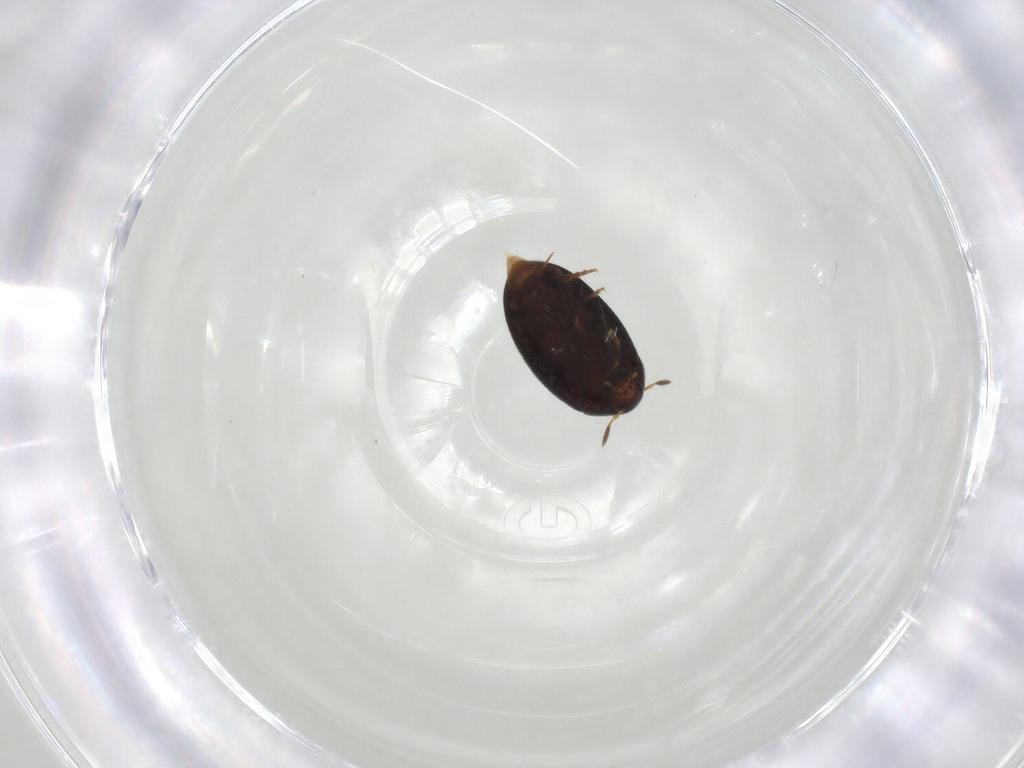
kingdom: Animalia
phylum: Arthropoda
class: Insecta
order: Coleoptera
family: Melandryidae
